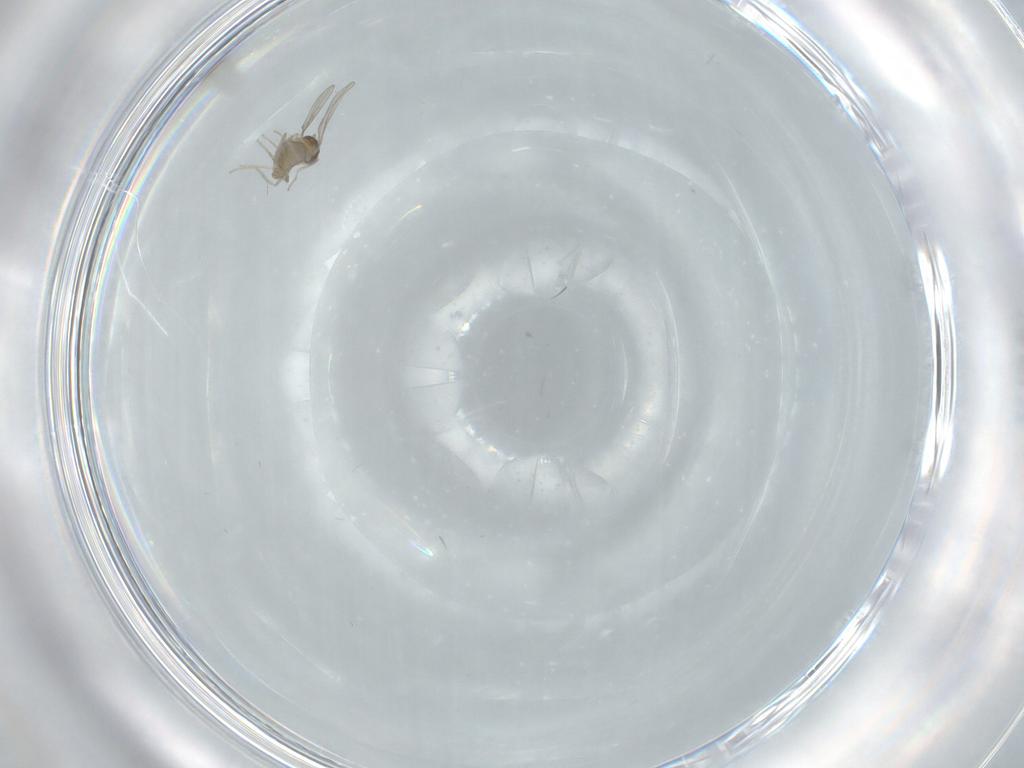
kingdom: Animalia
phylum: Arthropoda
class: Insecta
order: Diptera
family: Cecidomyiidae
